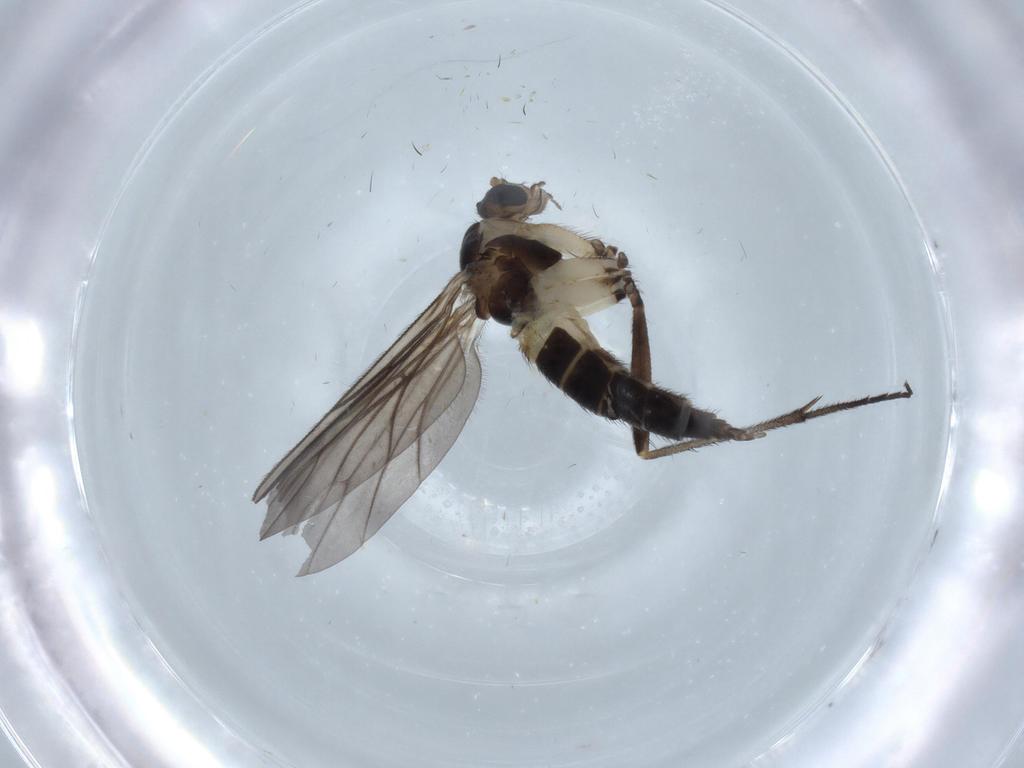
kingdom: Animalia
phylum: Arthropoda
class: Insecta
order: Diptera
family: Sciaridae
